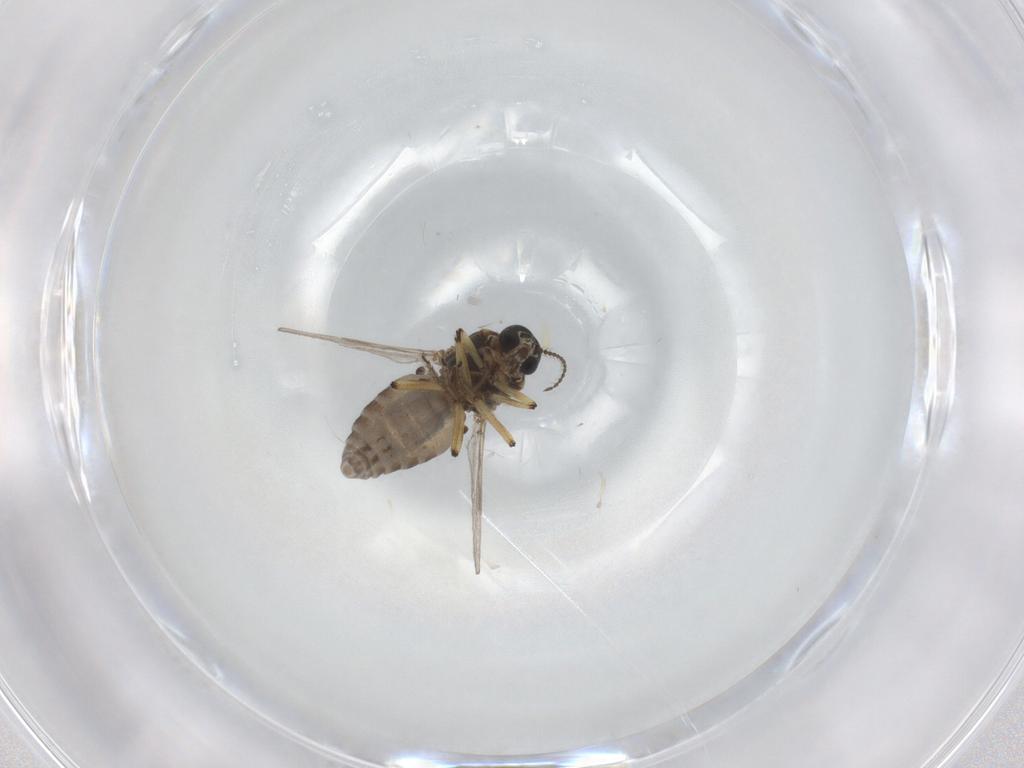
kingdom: Animalia
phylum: Arthropoda
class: Insecta
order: Diptera
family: Ceratopogonidae
